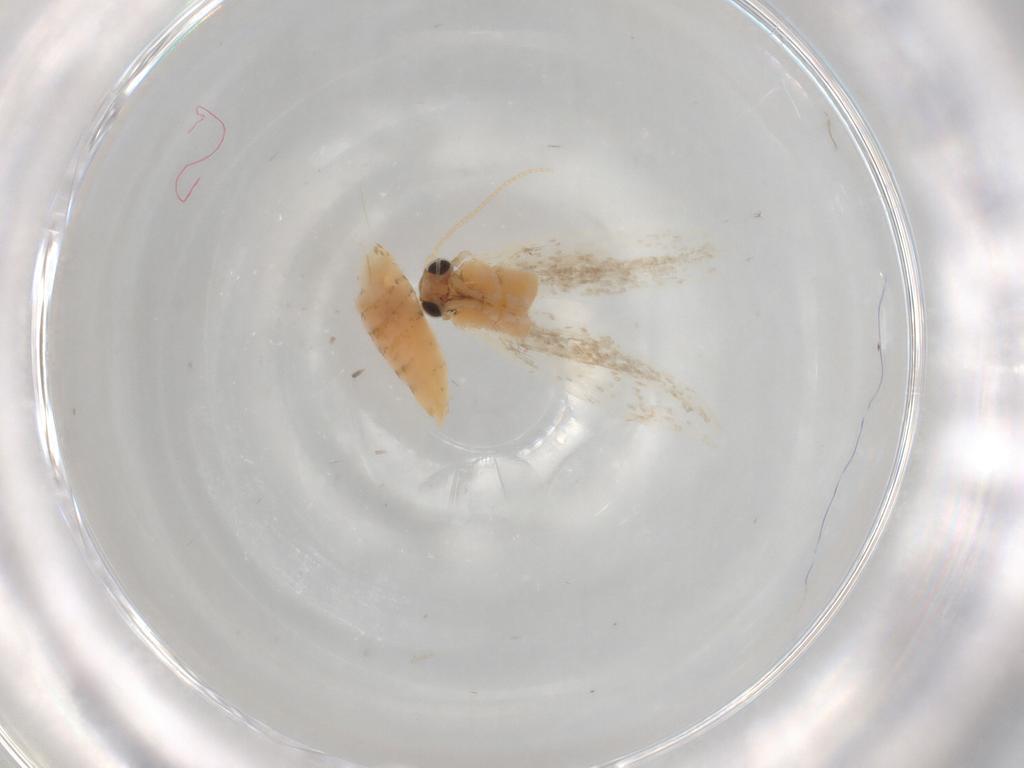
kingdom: Animalia
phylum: Arthropoda
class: Insecta
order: Lepidoptera
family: Tineidae
